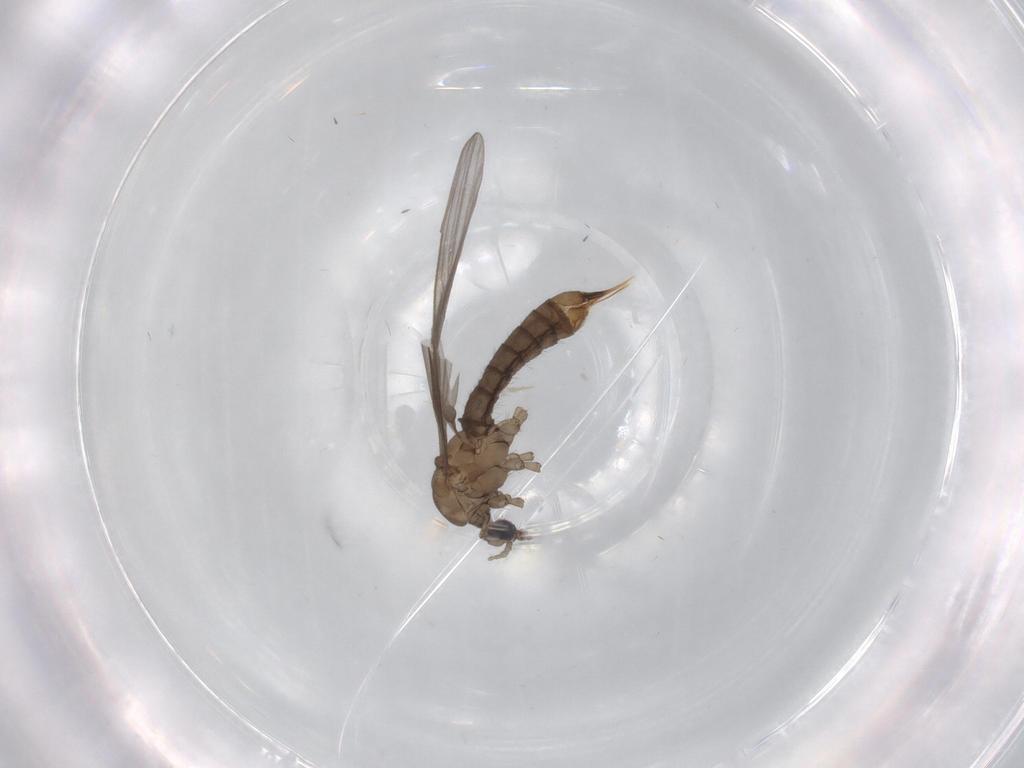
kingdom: Animalia
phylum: Arthropoda
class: Insecta
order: Diptera
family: Limoniidae
